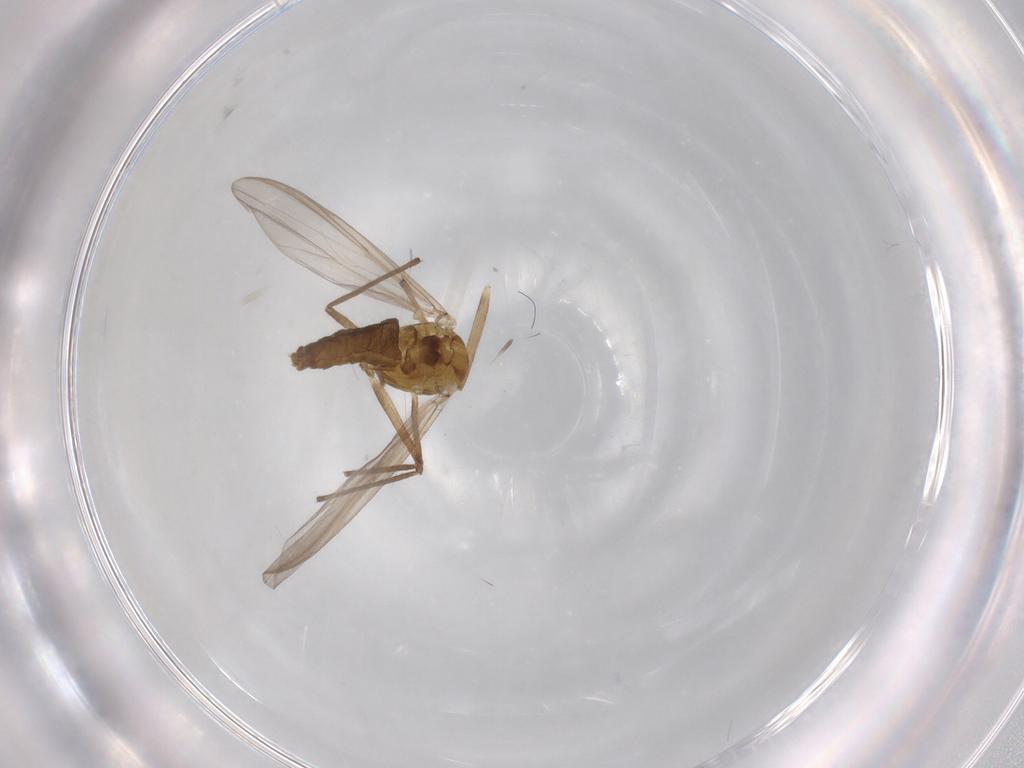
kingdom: Animalia
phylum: Arthropoda
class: Insecta
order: Diptera
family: Chironomidae
